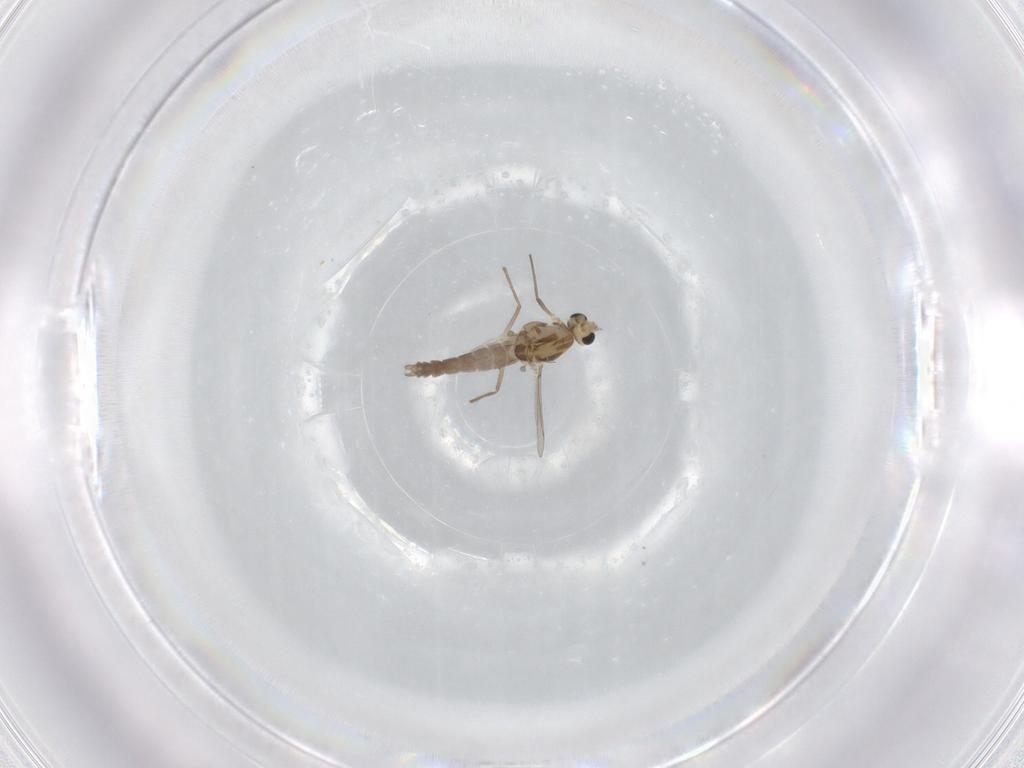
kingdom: Animalia
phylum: Arthropoda
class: Insecta
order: Diptera
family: Chironomidae
